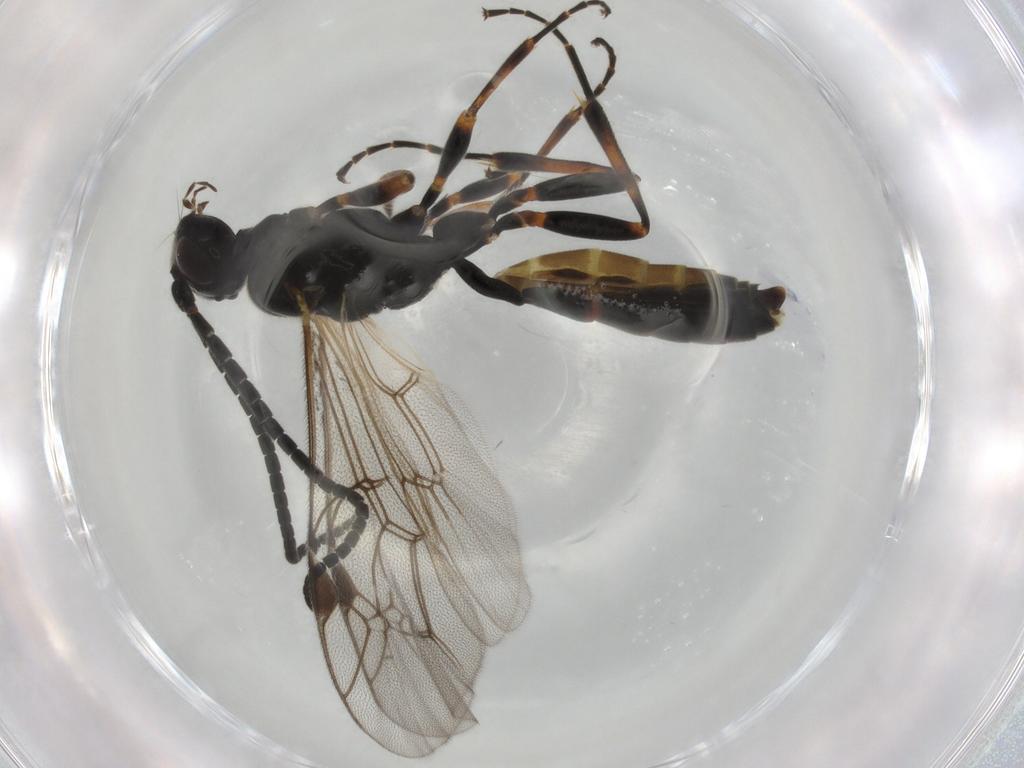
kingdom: Animalia
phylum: Arthropoda
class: Insecta
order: Hymenoptera
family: Ichneumonidae
